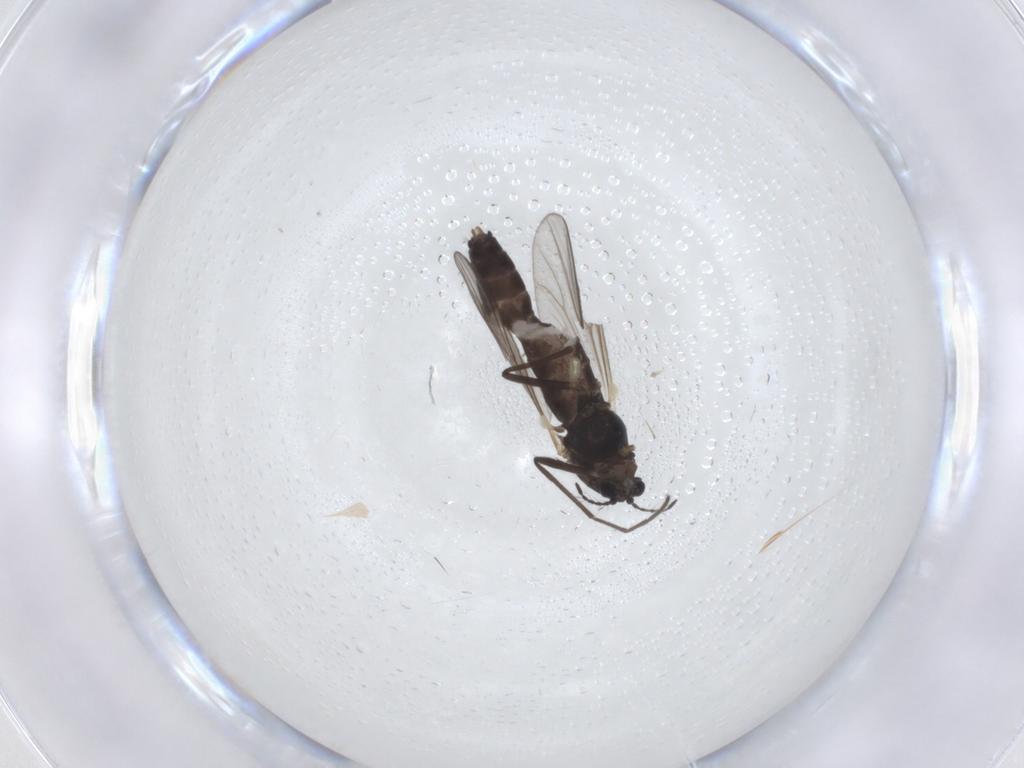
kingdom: Animalia
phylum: Arthropoda
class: Insecta
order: Diptera
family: Chironomidae
